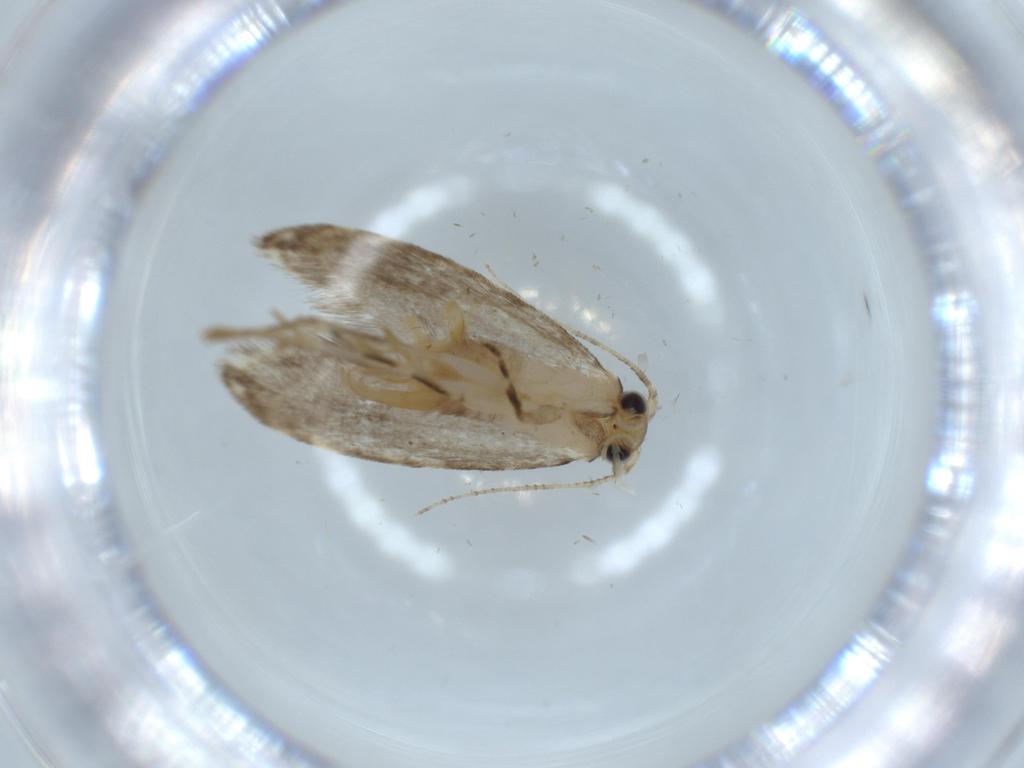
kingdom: Animalia
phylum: Arthropoda
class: Insecta
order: Lepidoptera
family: Tineidae
